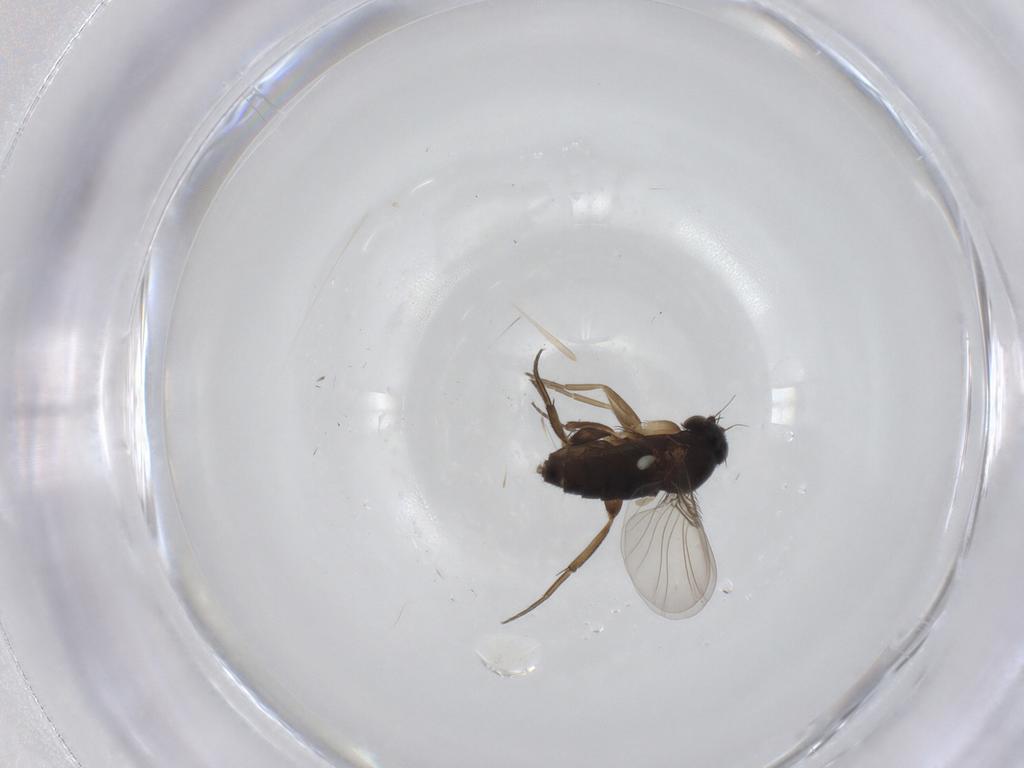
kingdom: Animalia
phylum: Arthropoda
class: Insecta
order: Diptera
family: Phoridae
